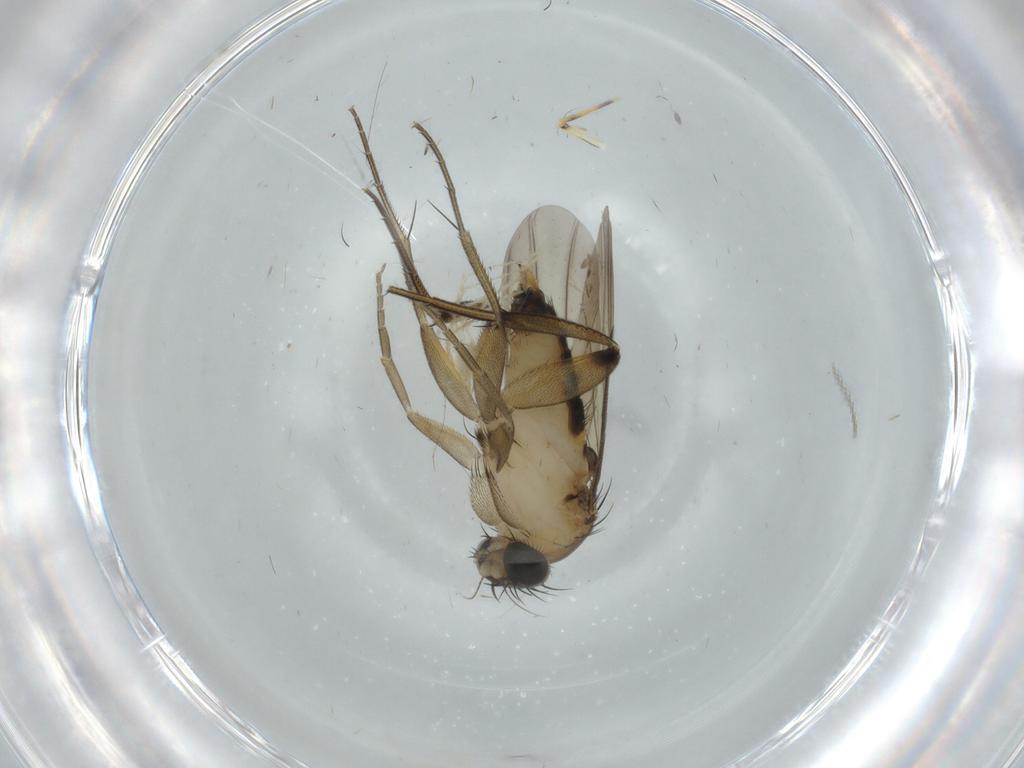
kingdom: Animalia
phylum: Arthropoda
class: Insecta
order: Diptera
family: Phoridae
